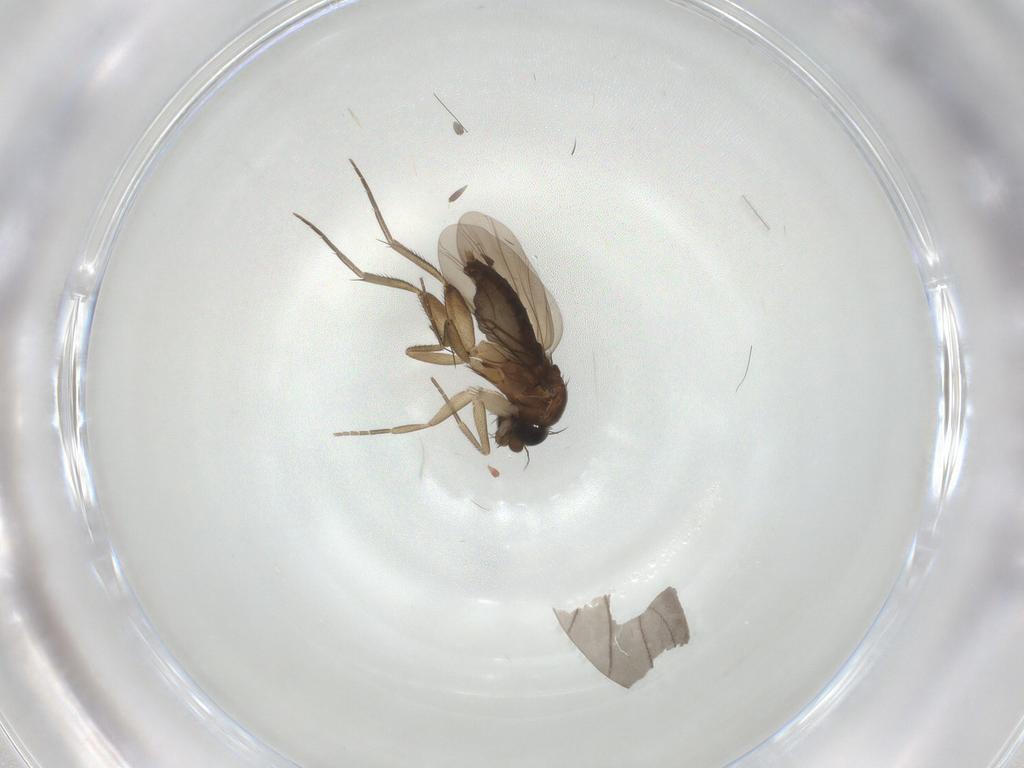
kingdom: Animalia
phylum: Arthropoda
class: Insecta
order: Diptera
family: Phoridae
